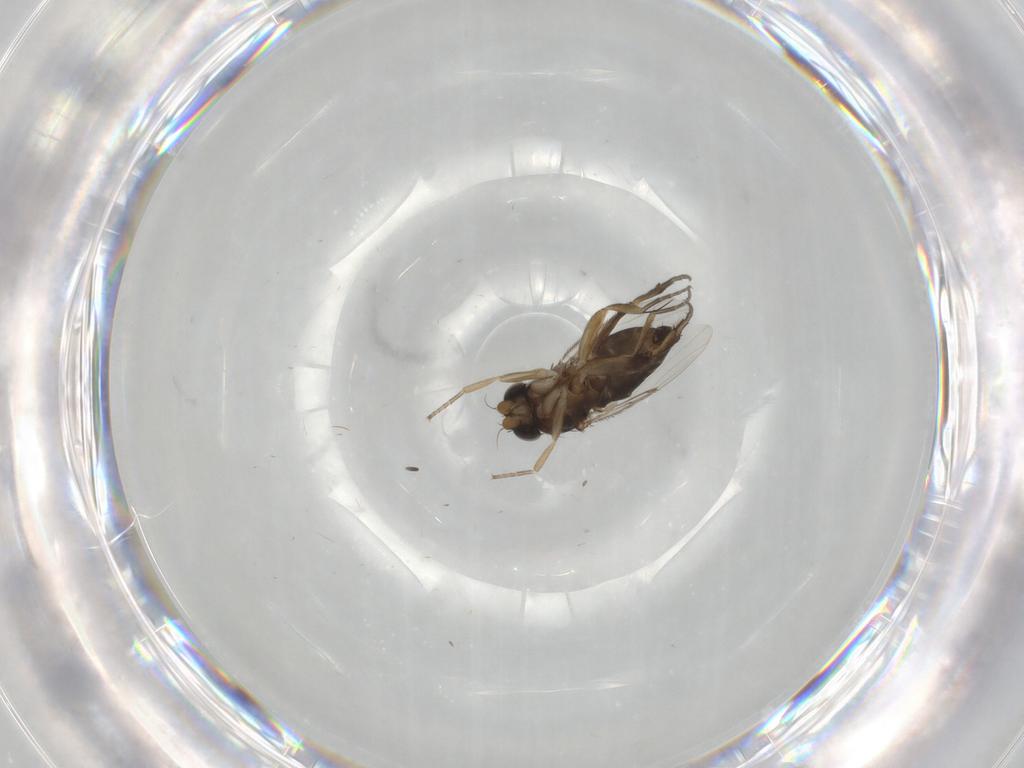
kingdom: Animalia
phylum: Arthropoda
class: Insecta
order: Diptera
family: Phoridae
